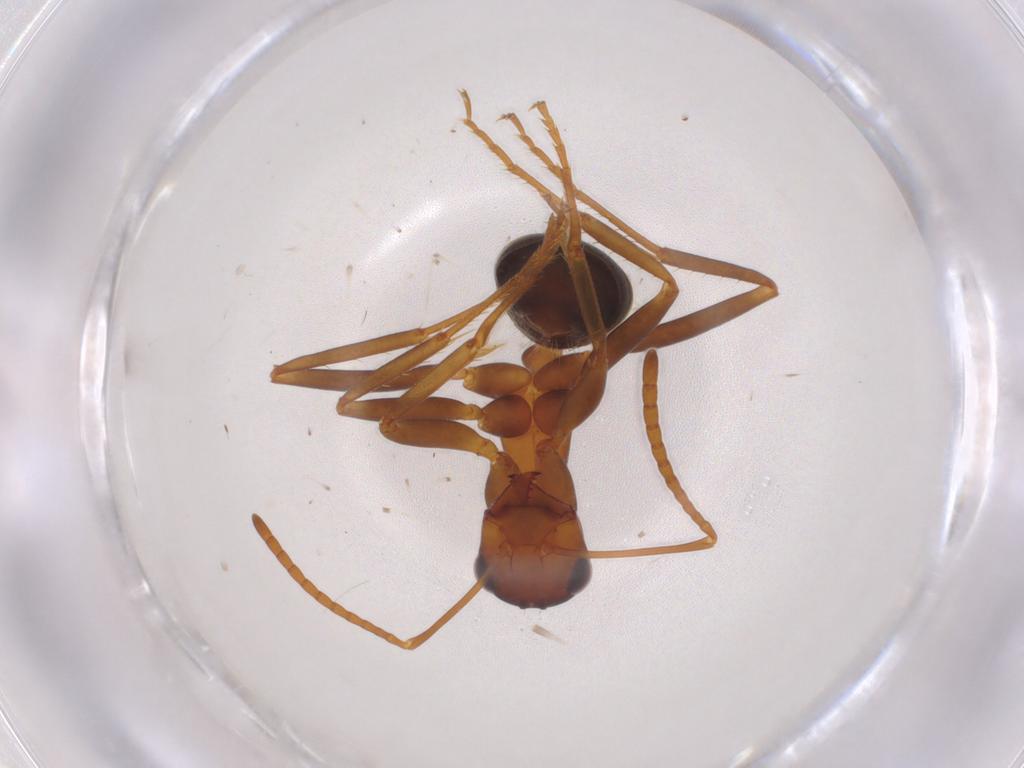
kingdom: Animalia
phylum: Arthropoda
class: Insecta
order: Hymenoptera
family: Formicidae
